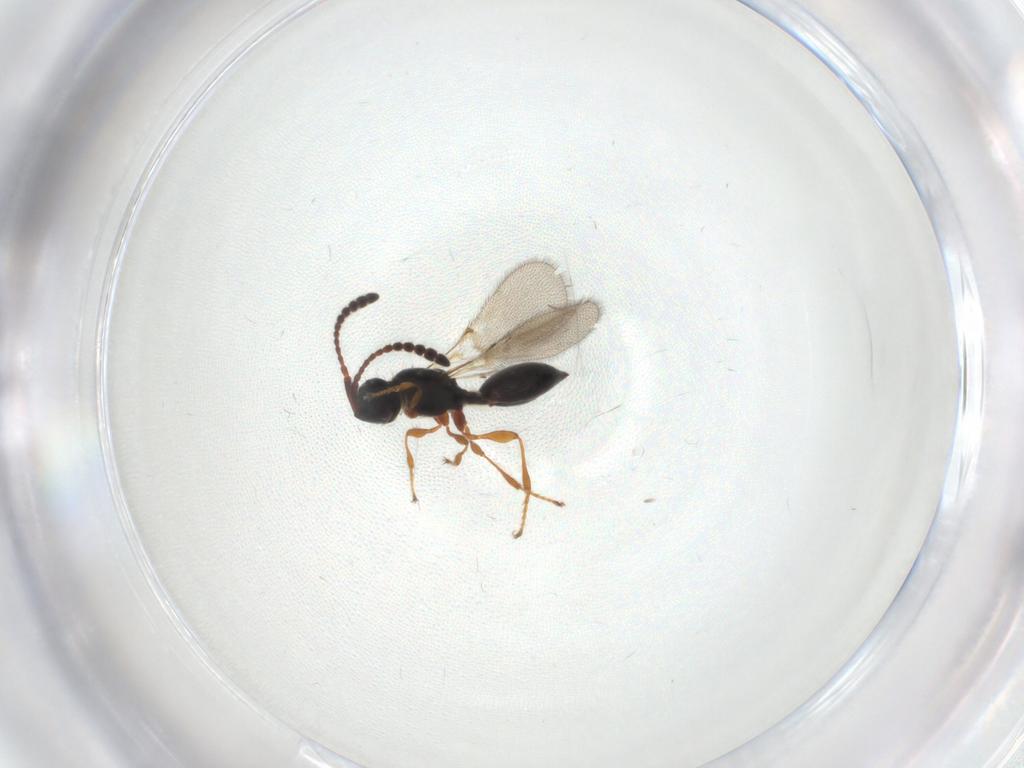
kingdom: Animalia
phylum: Arthropoda
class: Insecta
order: Hymenoptera
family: Diapriidae
